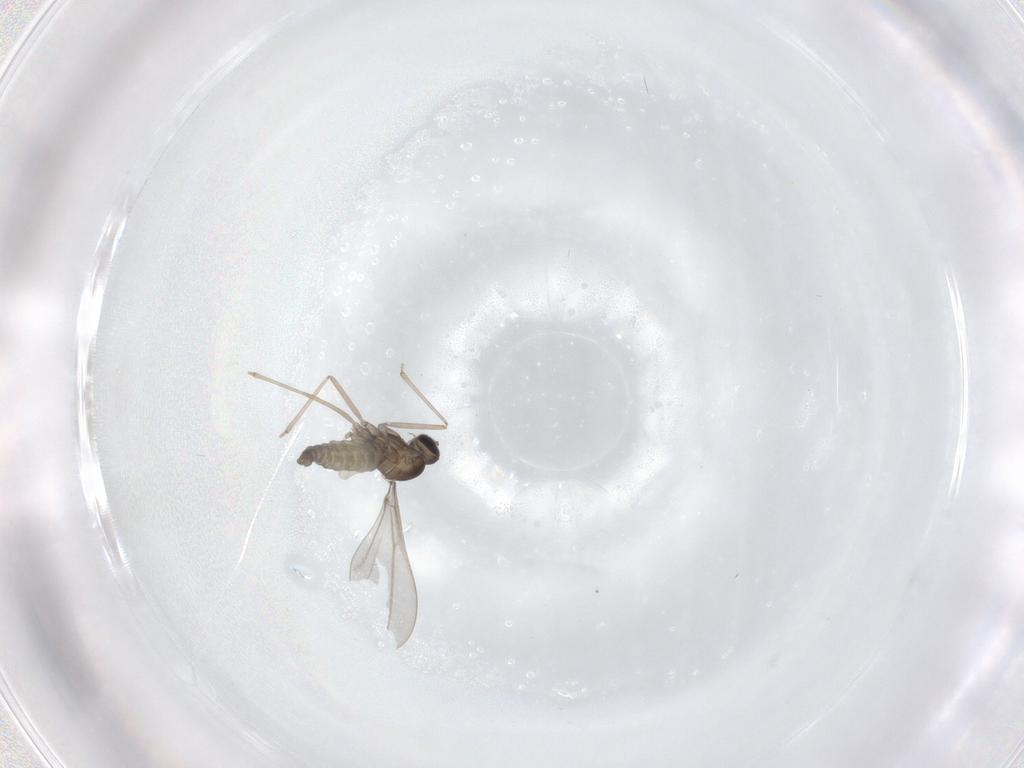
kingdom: Animalia
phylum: Arthropoda
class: Insecta
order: Diptera
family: Cecidomyiidae
